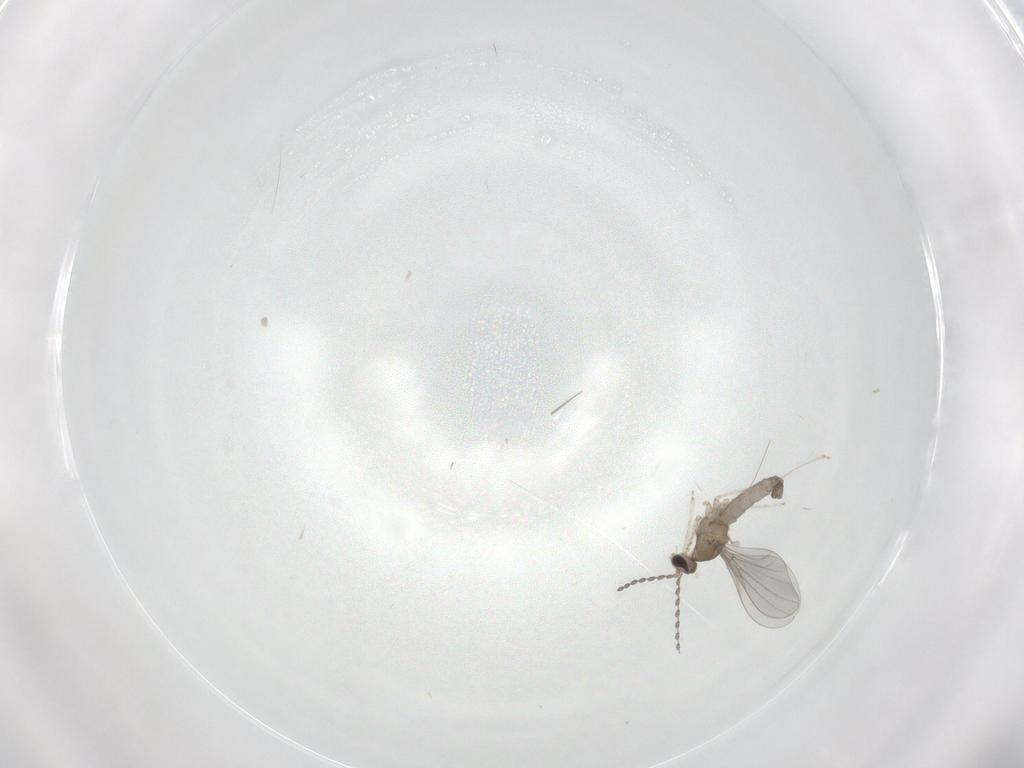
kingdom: Animalia
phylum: Arthropoda
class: Insecta
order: Diptera
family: Cecidomyiidae
